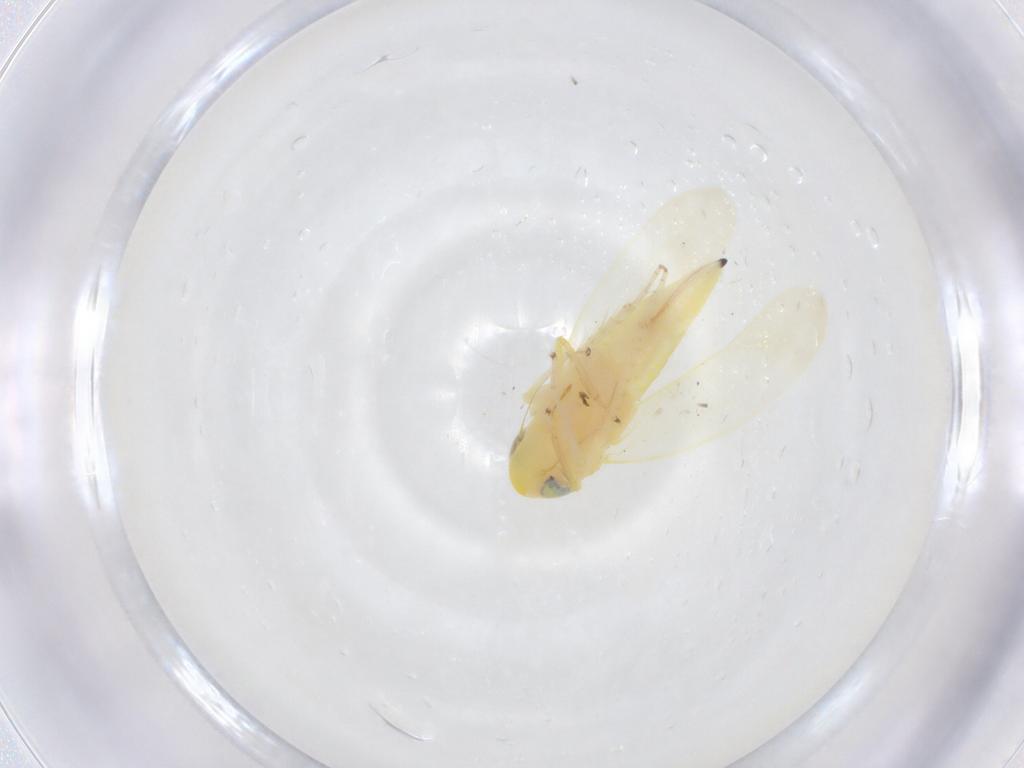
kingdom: Animalia
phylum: Arthropoda
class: Insecta
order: Hemiptera
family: Cicadellidae
